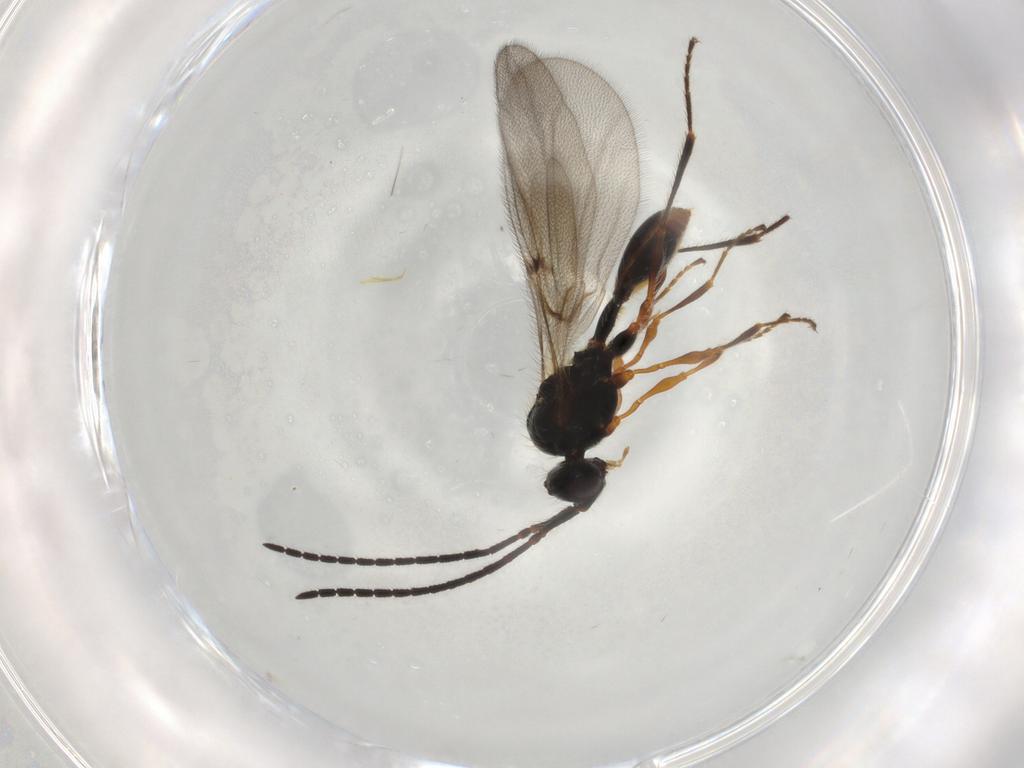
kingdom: Animalia
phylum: Arthropoda
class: Insecta
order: Hymenoptera
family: Diapriidae
